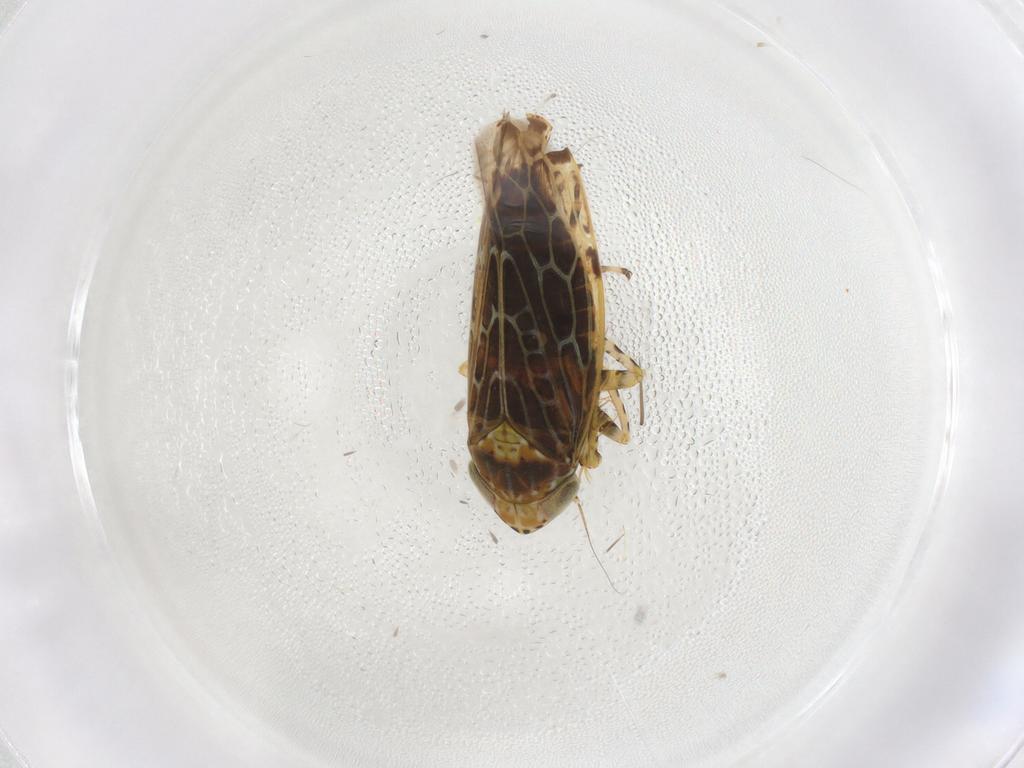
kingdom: Animalia
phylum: Arthropoda
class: Insecta
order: Hemiptera
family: Cicadellidae
